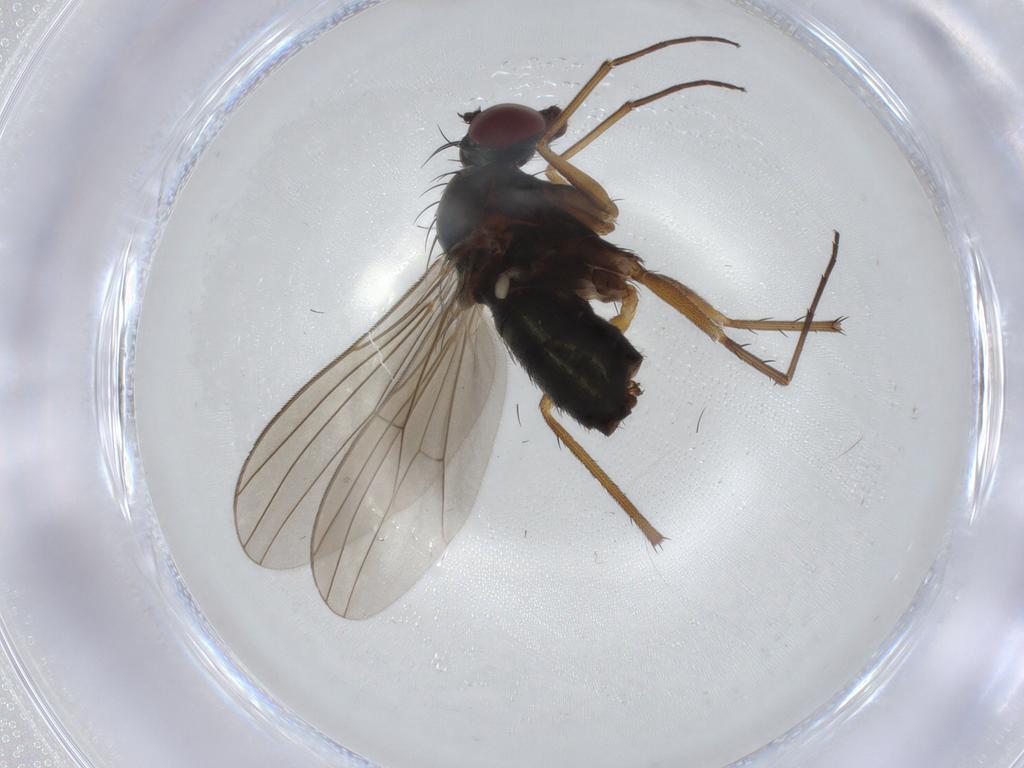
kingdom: Animalia
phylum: Arthropoda
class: Insecta
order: Diptera
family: Dolichopodidae
